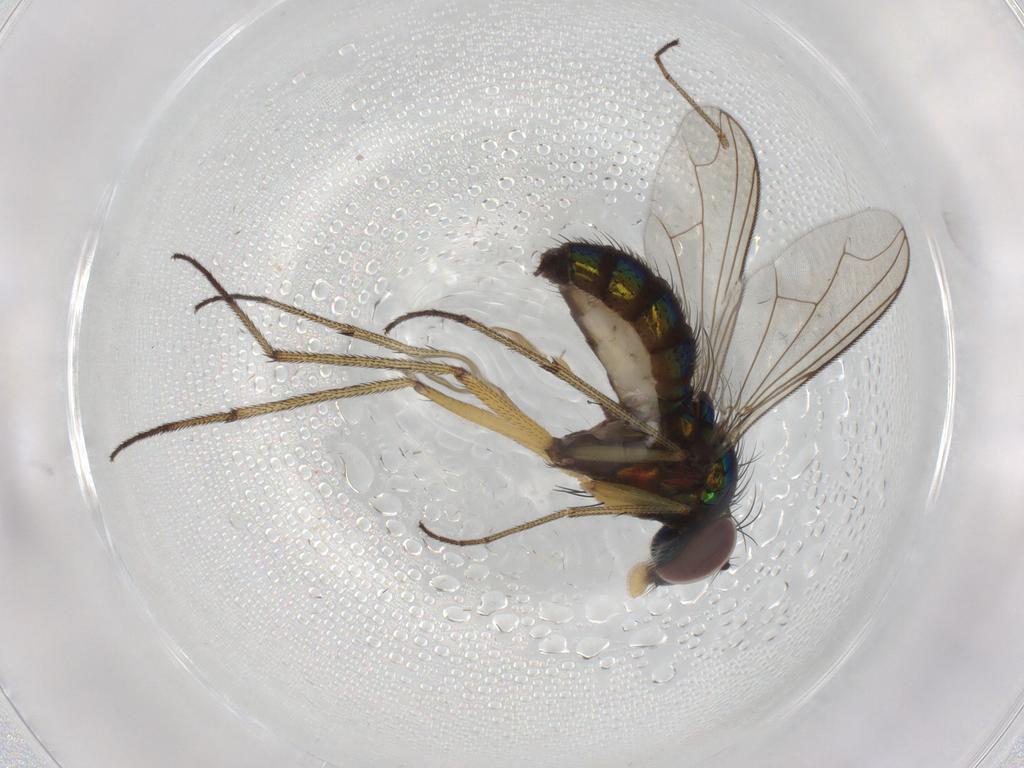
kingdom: Animalia
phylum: Arthropoda
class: Insecta
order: Diptera
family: Dolichopodidae
